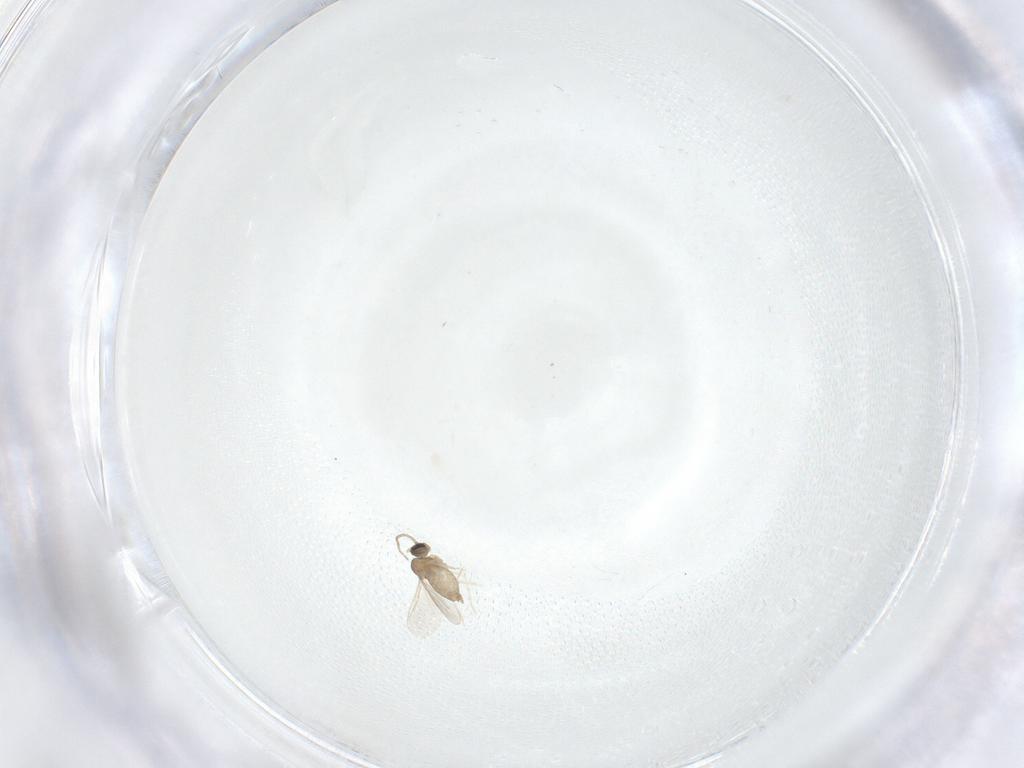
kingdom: Animalia
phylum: Arthropoda
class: Insecta
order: Diptera
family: Cecidomyiidae
